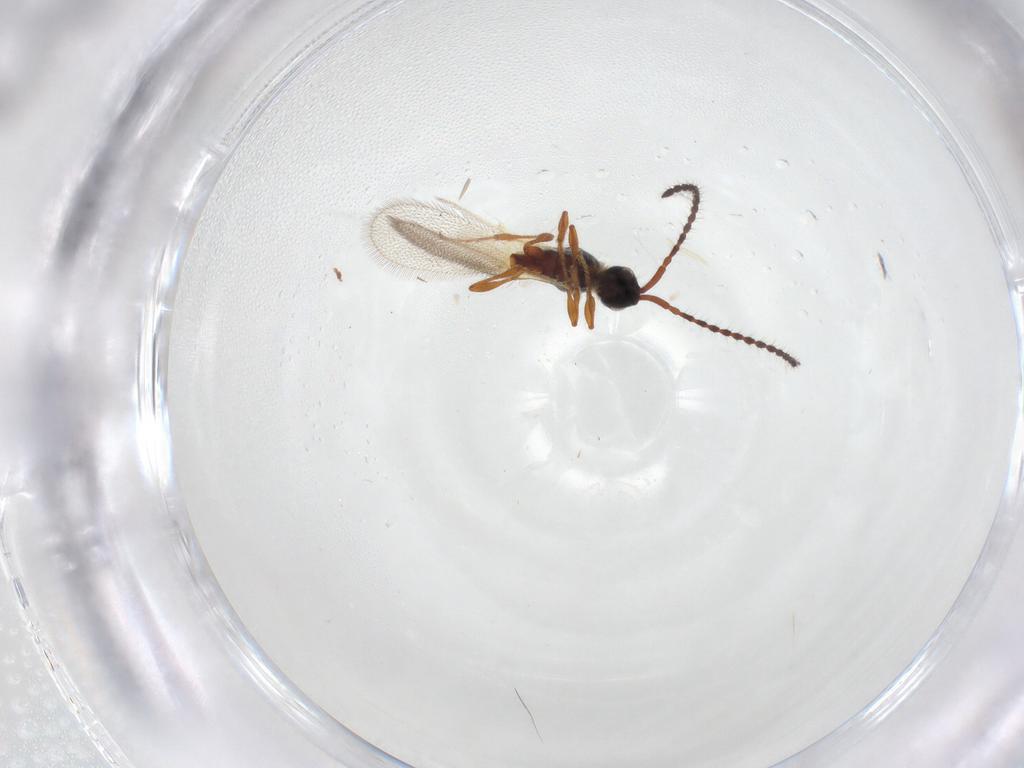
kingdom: Animalia
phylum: Arthropoda
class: Insecta
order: Hymenoptera
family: Diapriidae
